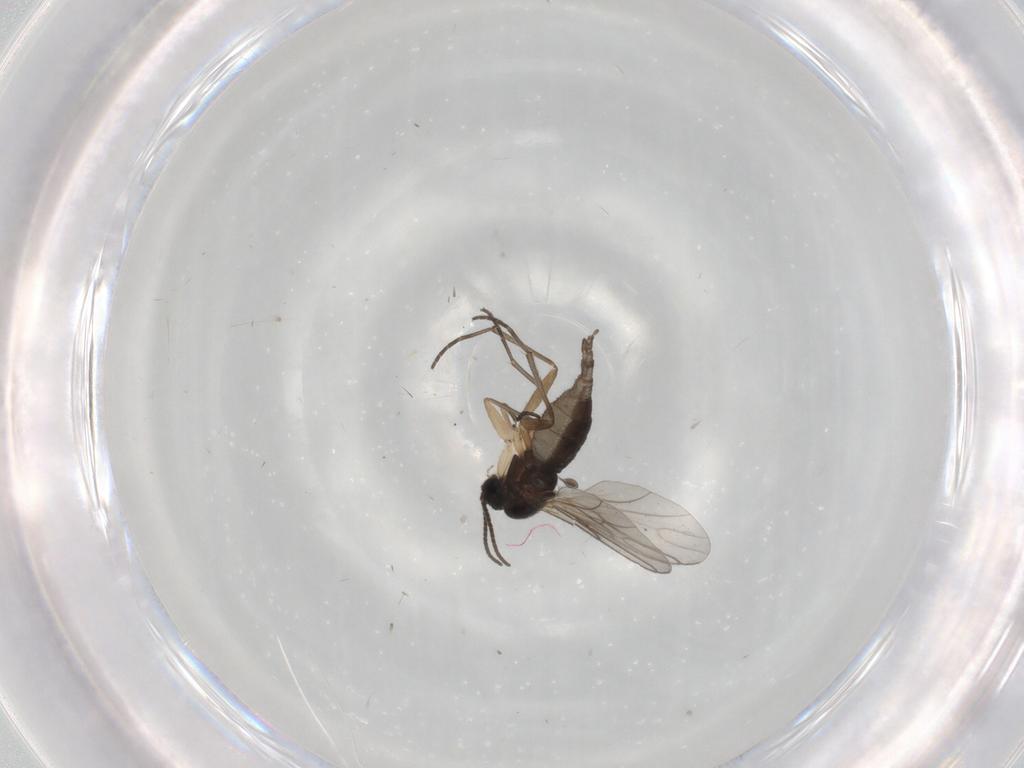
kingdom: Animalia
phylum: Arthropoda
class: Insecta
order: Diptera
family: Sciaridae
